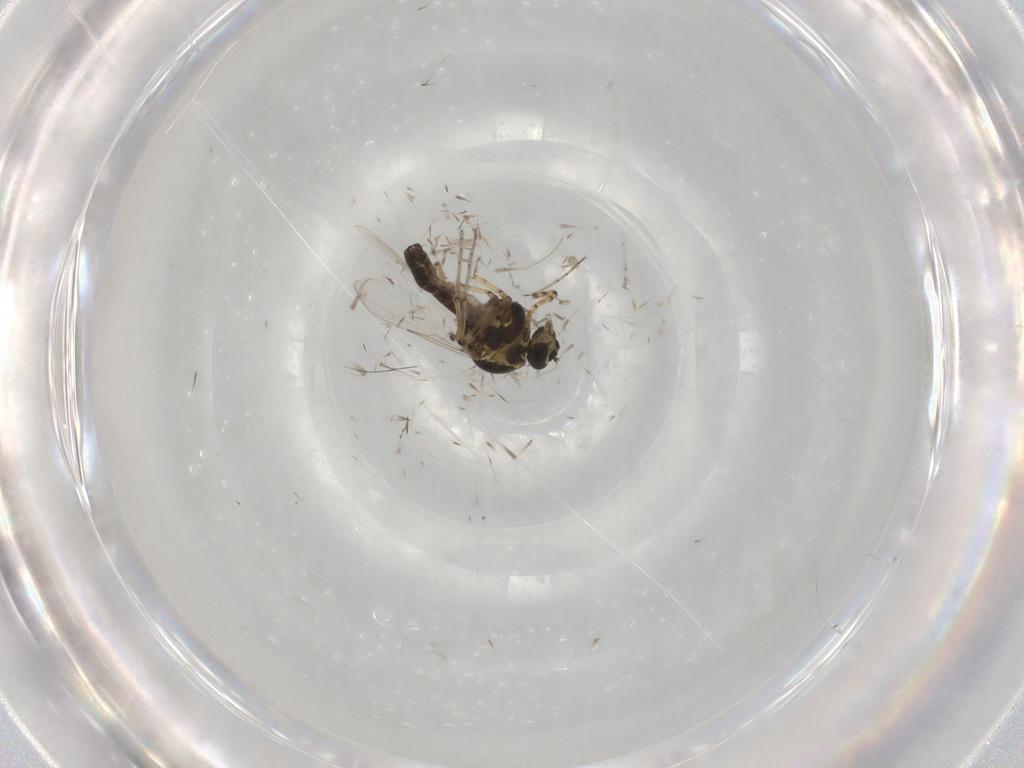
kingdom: Animalia
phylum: Arthropoda
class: Insecta
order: Diptera
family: Ceratopogonidae
